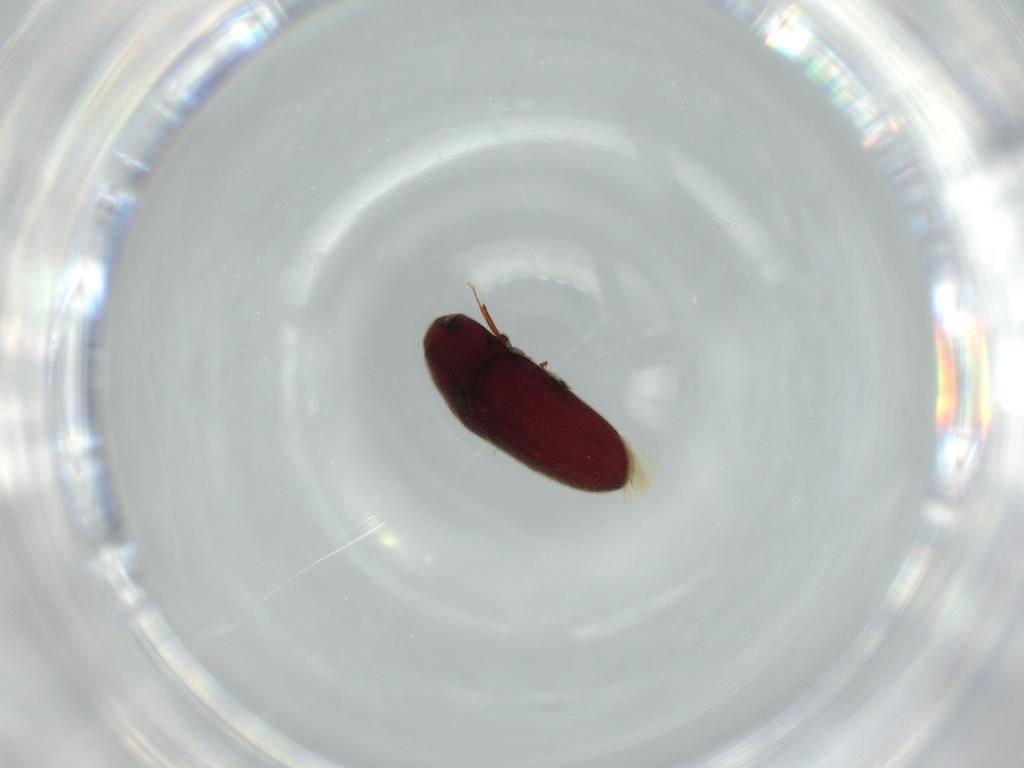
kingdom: Animalia
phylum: Arthropoda
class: Insecta
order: Coleoptera
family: Throscidae
